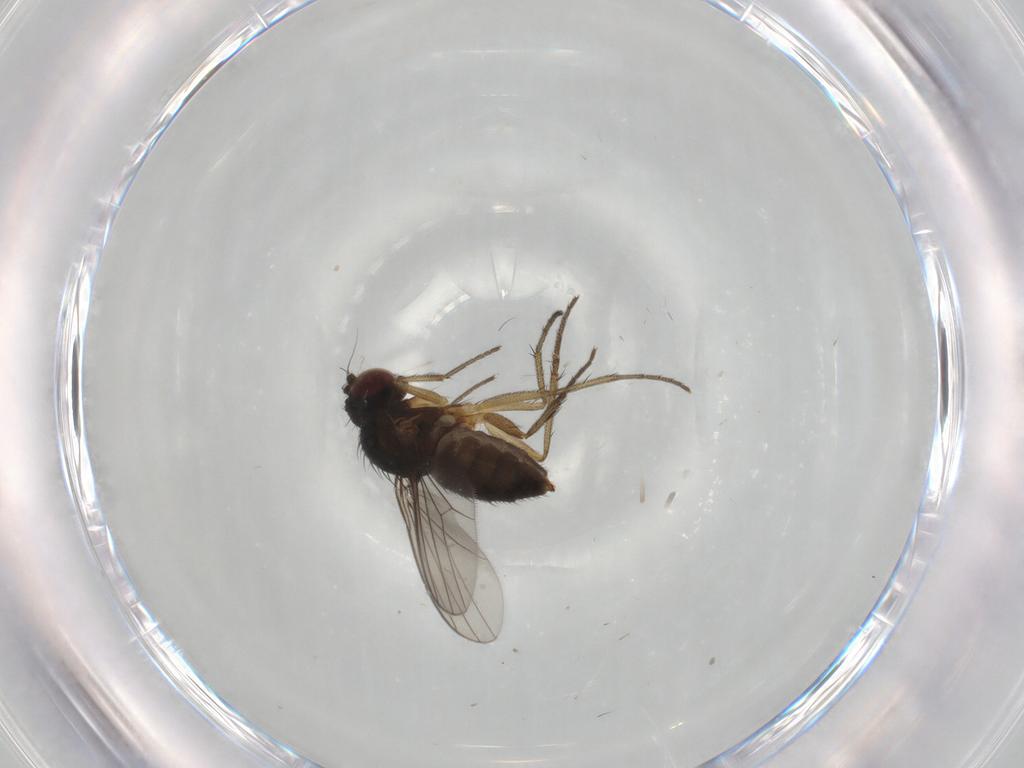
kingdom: Animalia
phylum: Arthropoda
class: Insecta
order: Diptera
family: Dolichopodidae
